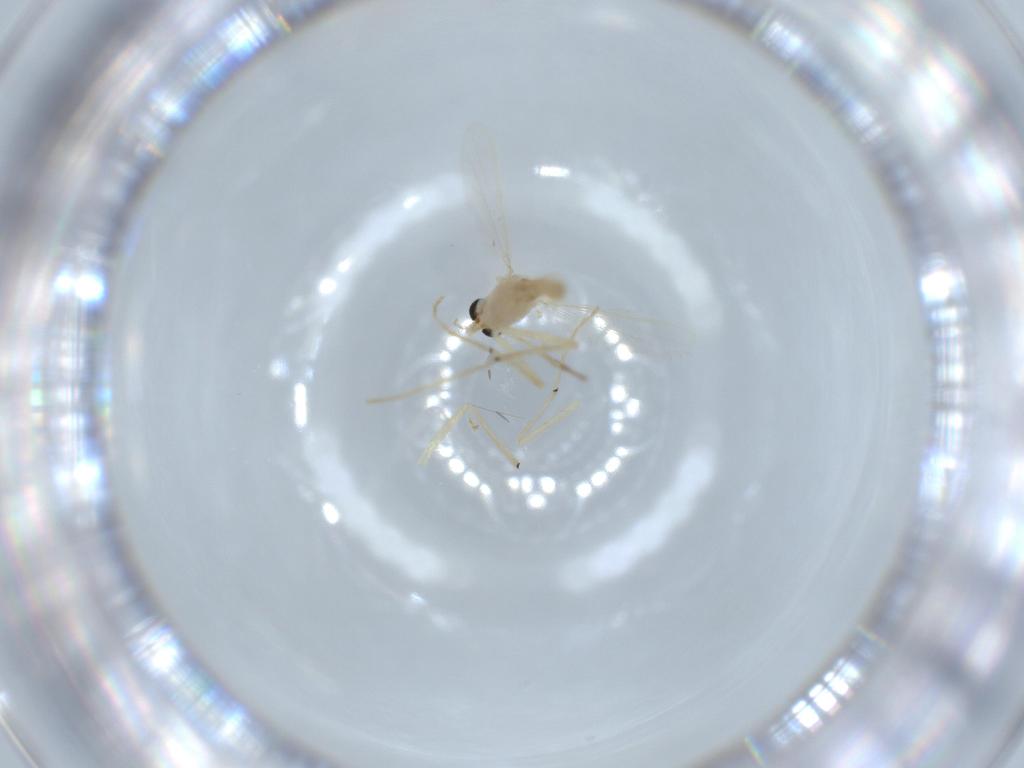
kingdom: Animalia
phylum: Arthropoda
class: Insecta
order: Diptera
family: Chironomidae
